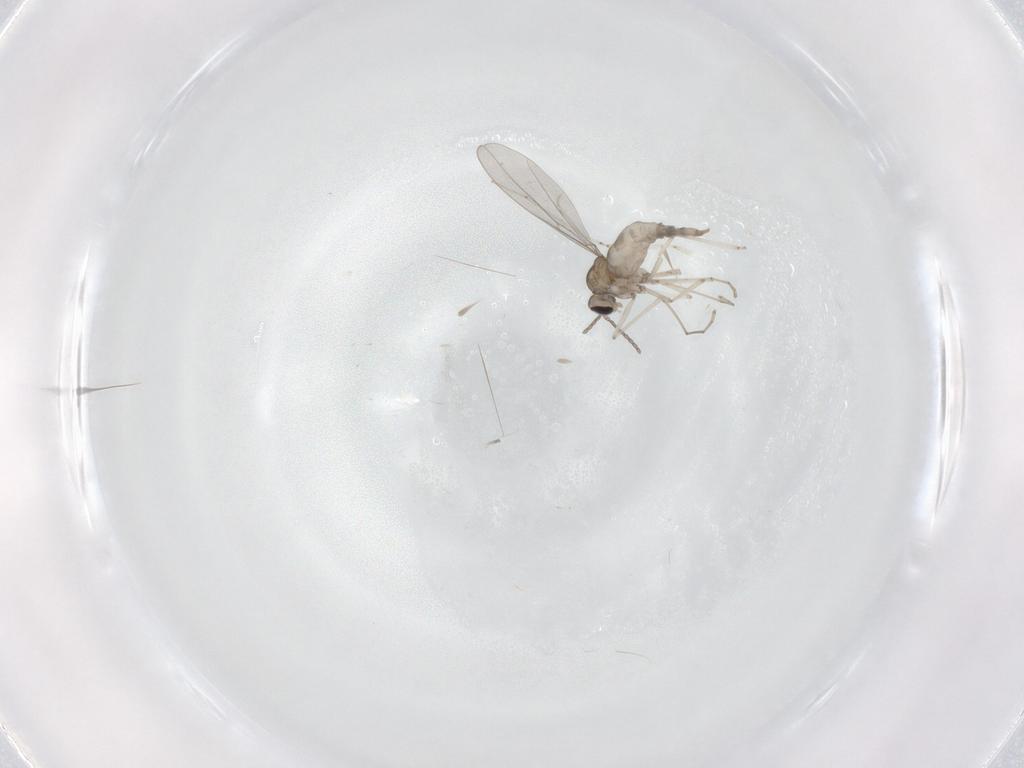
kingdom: Animalia
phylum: Arthropoda
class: Insecta
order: Diptera
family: Cecidomyiidae
